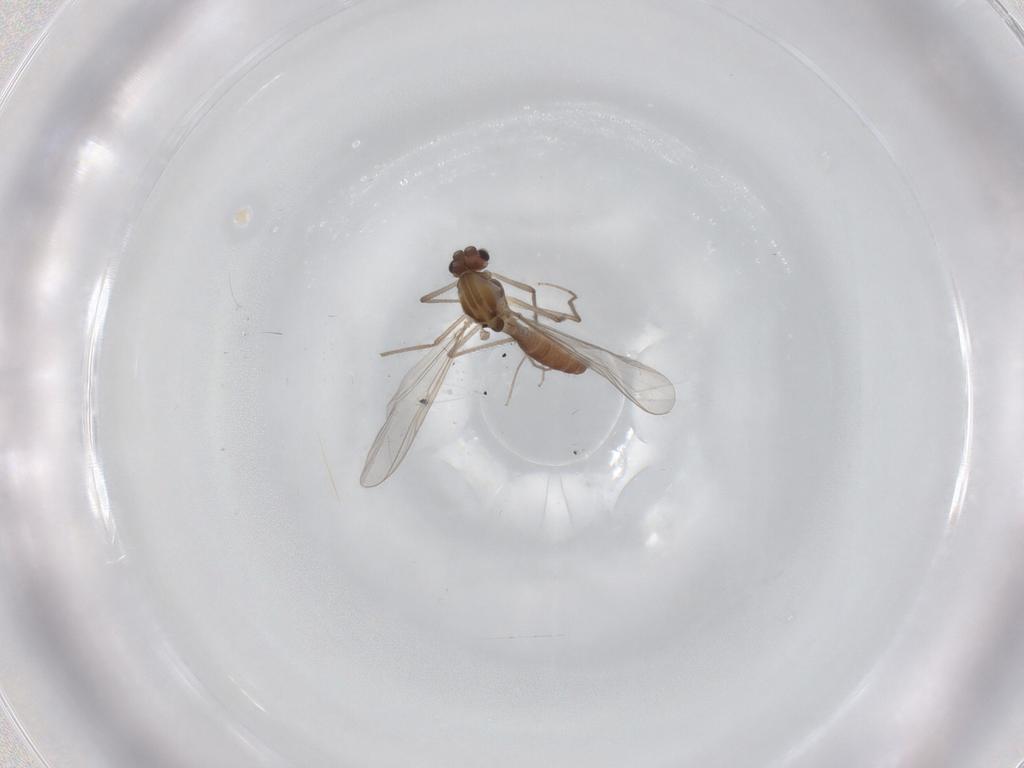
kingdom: Animalia
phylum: Arthropoda
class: Insecta
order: Diptera
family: Chironomidae
